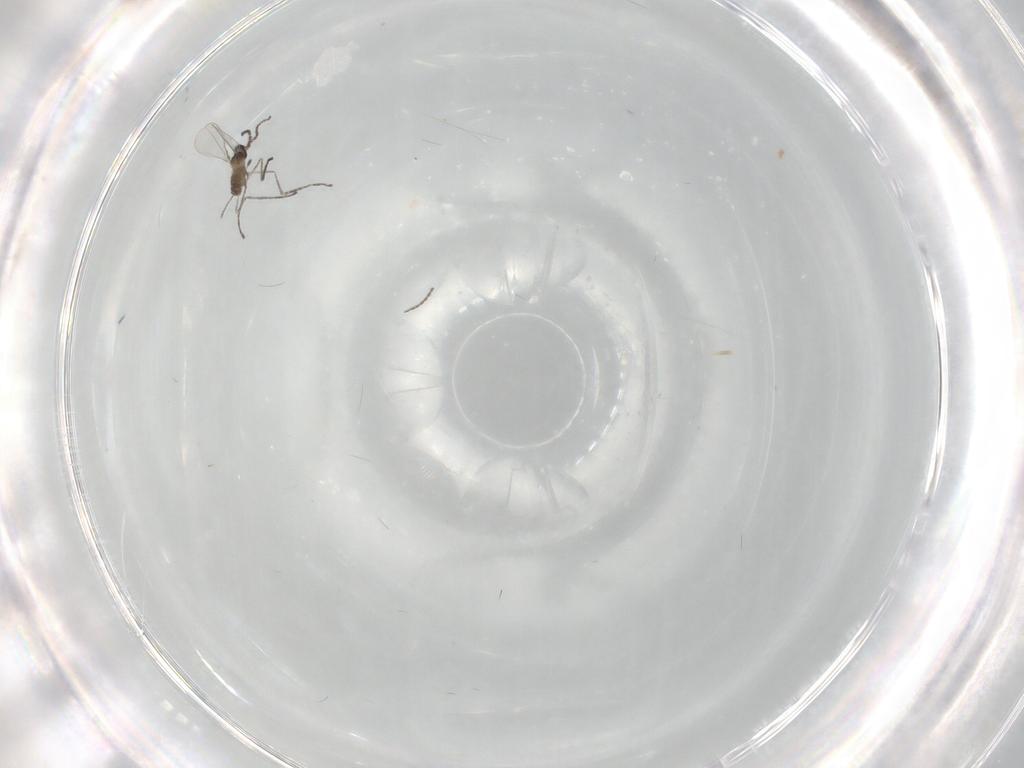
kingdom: Animalia
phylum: Arthropoda
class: Insecta
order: Diptera
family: Cecidomyiidae
